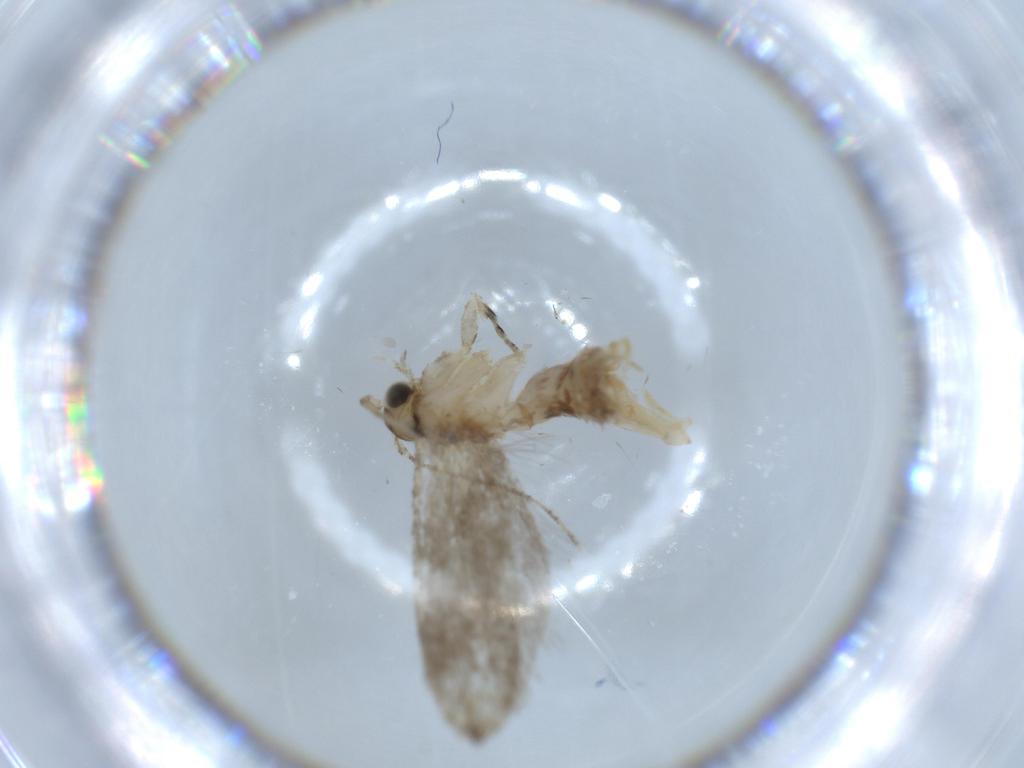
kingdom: Animalia
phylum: Arthropoda
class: Insecta
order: Lepidoptera
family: Tineidae
